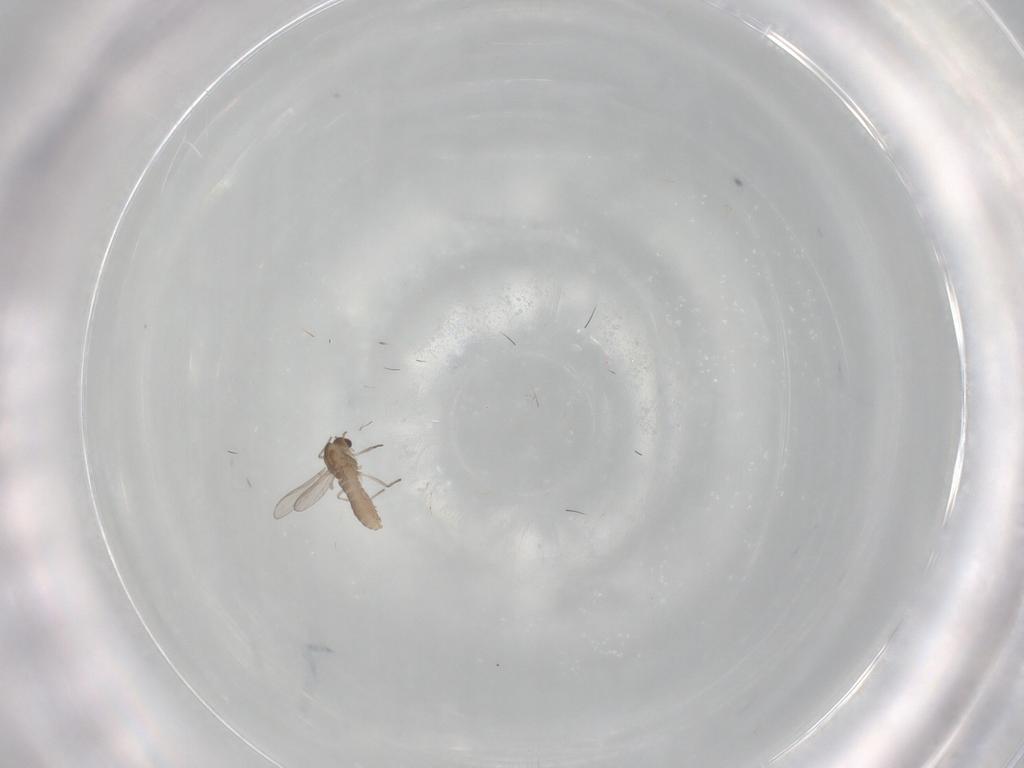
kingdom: Animalia
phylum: Arthropoda
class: Insecta
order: Diptera
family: Chironomidae
